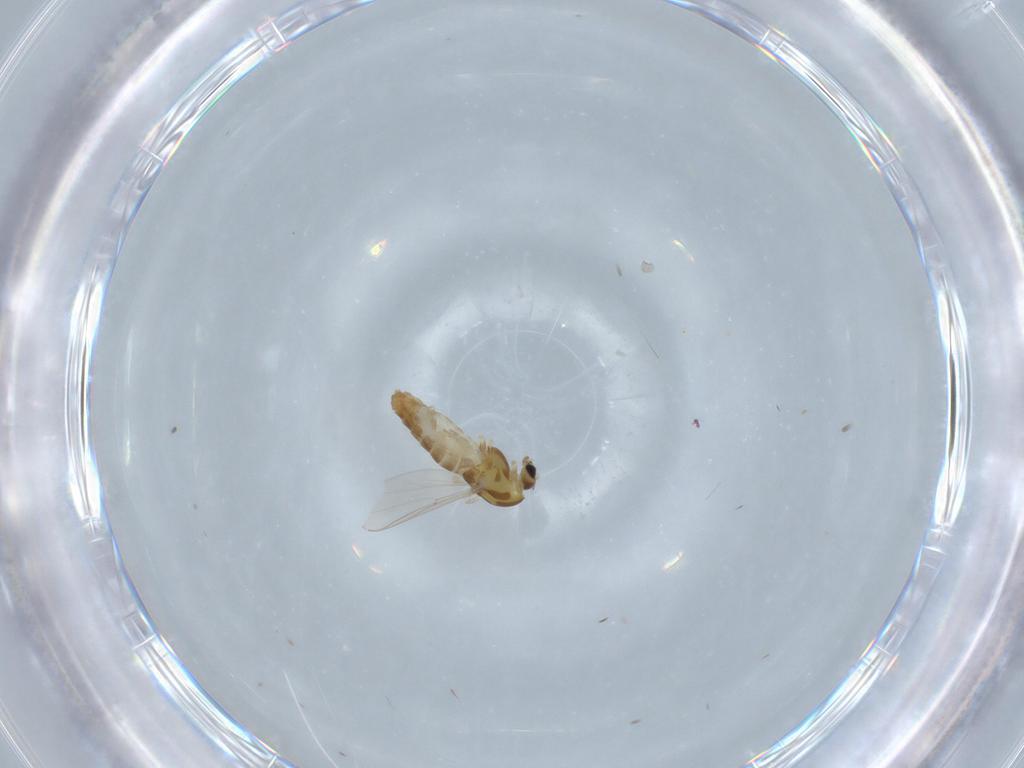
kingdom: Animalia
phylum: Arthropoda
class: Insecta
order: Diptera
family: Chironomidae
